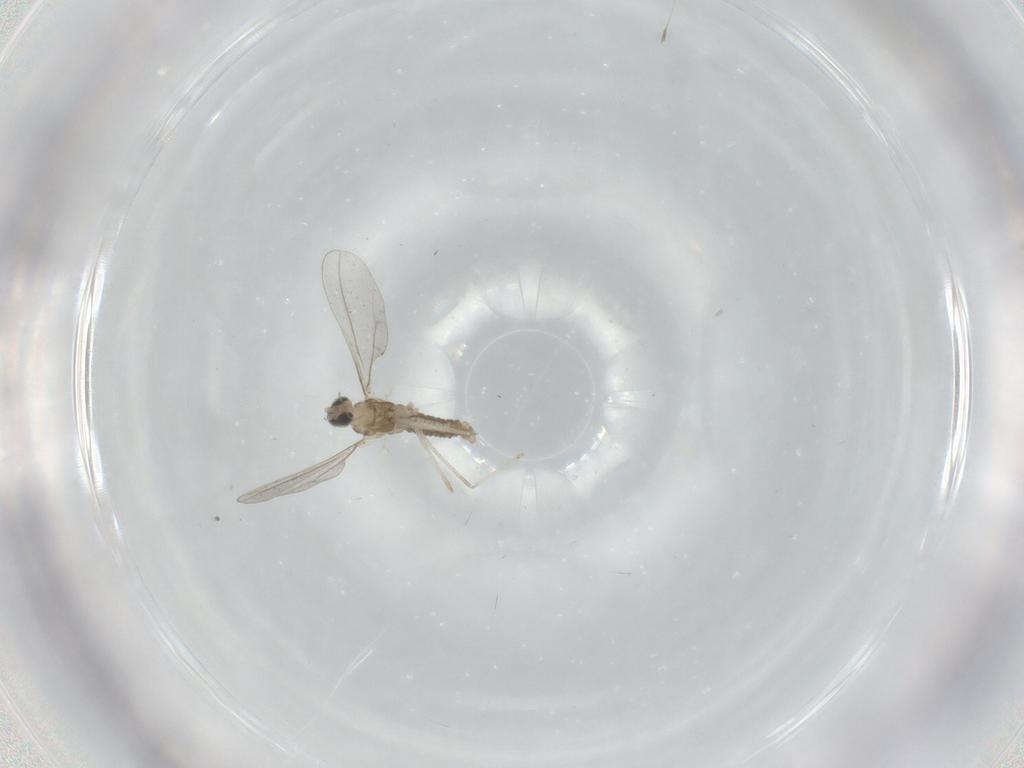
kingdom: Animalia
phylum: Arthropoda
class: Insecta
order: Diptera
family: Cecidomyiidae
